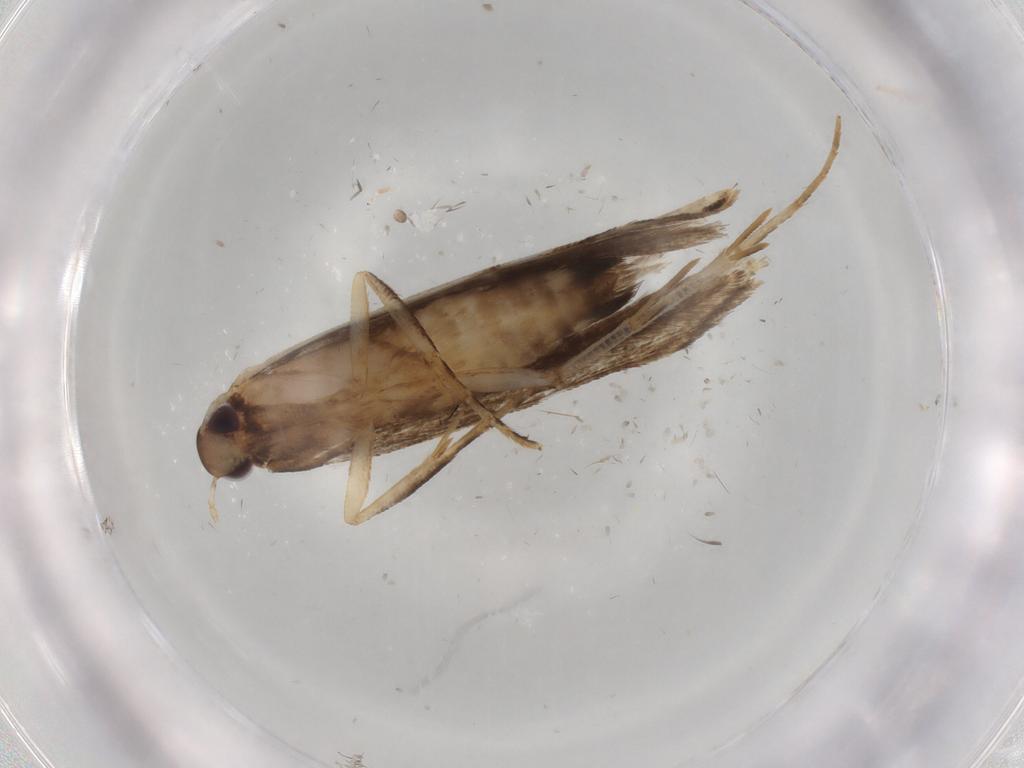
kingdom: Animalia
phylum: Arthropoda
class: Insecta
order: Lepidoptera
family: Gelechiidae
